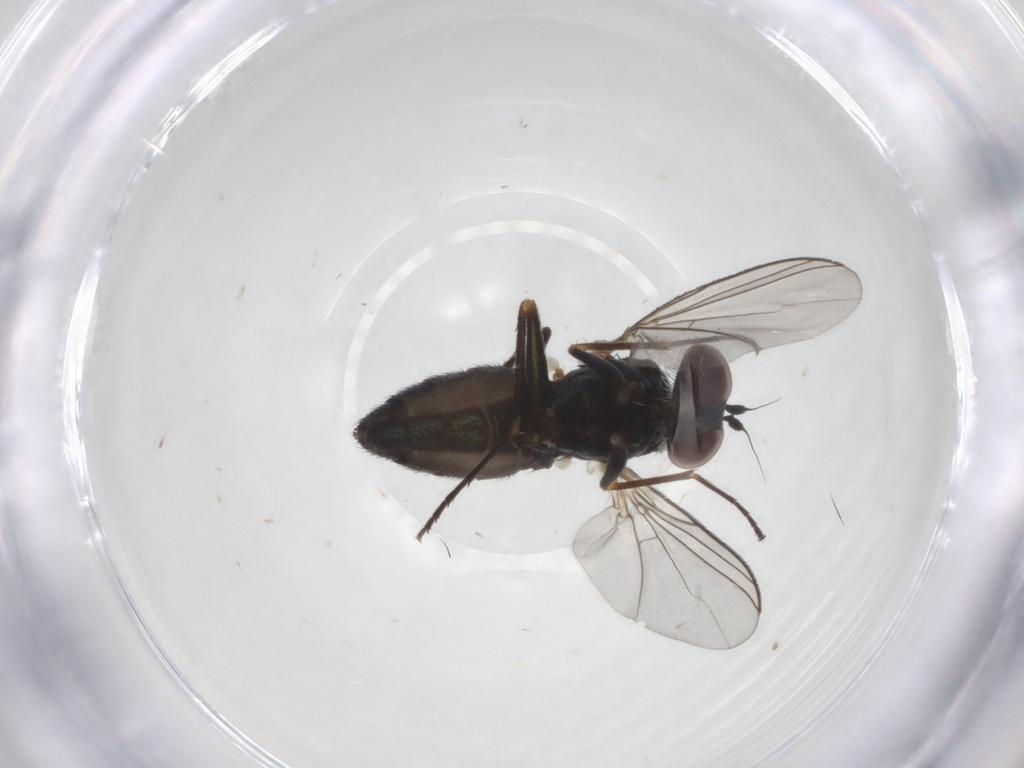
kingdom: Animalia
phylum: Arthropoda
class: Insecta
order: Diptera
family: Dolichopodidae
